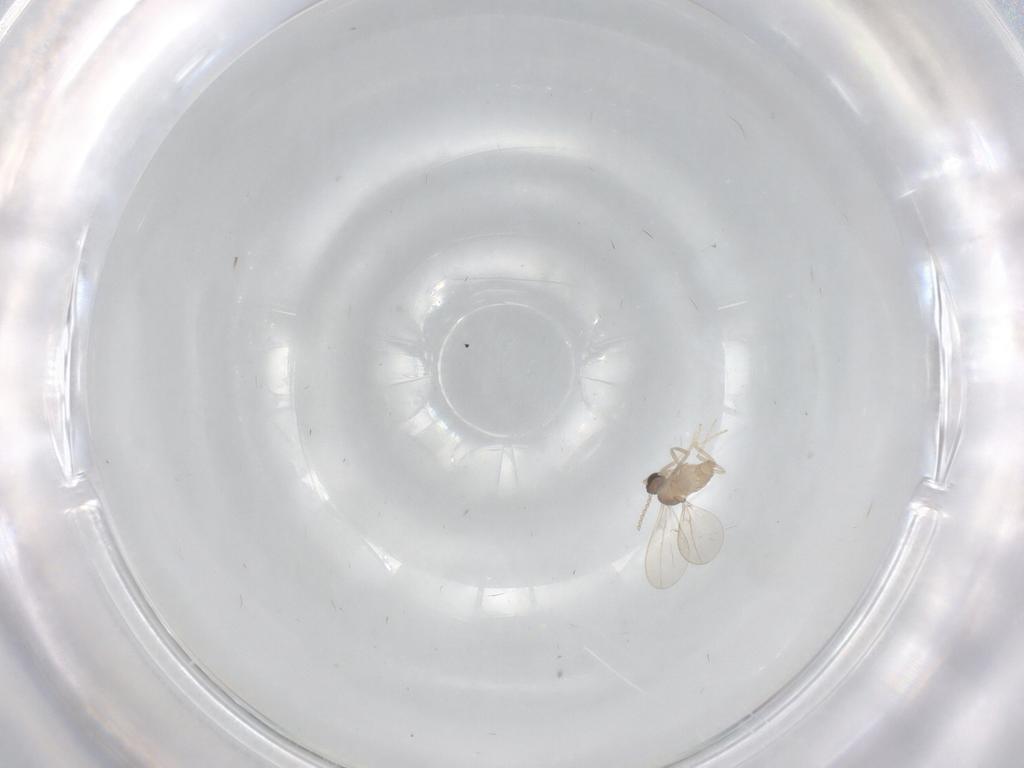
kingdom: Animalia
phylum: Arthropoda
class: Insecta
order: Diptera
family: Cecidomyiidae
